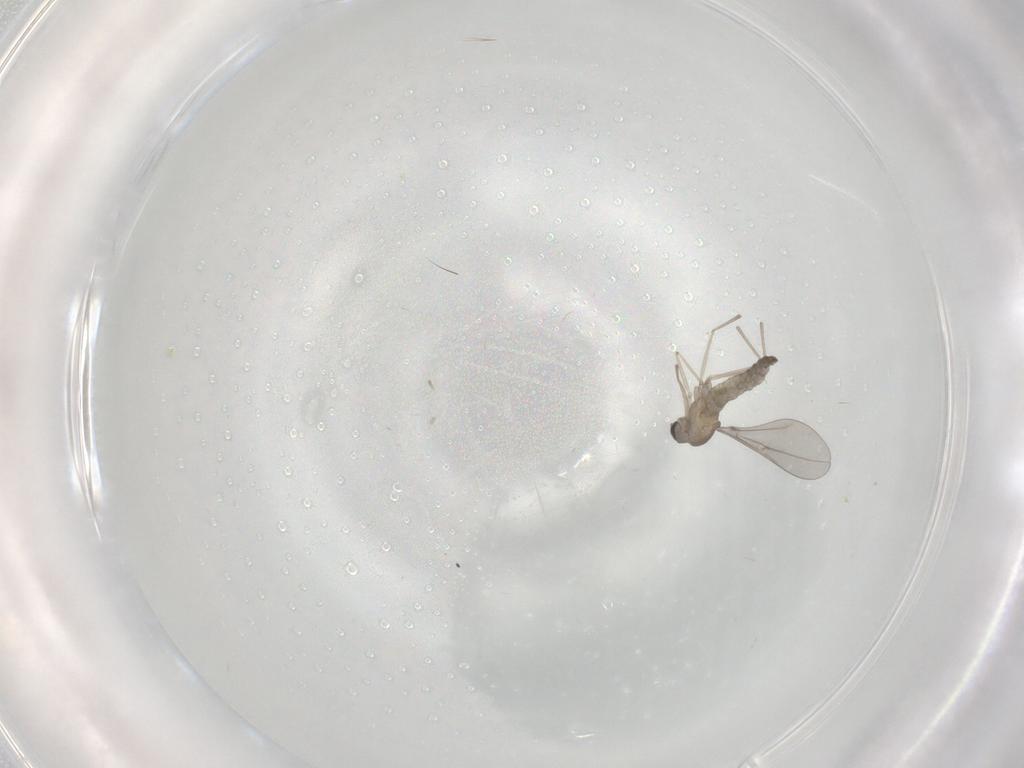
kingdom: Animalia
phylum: Arthropoda
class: Insecta
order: Diptera
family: Cecidomyiidae
